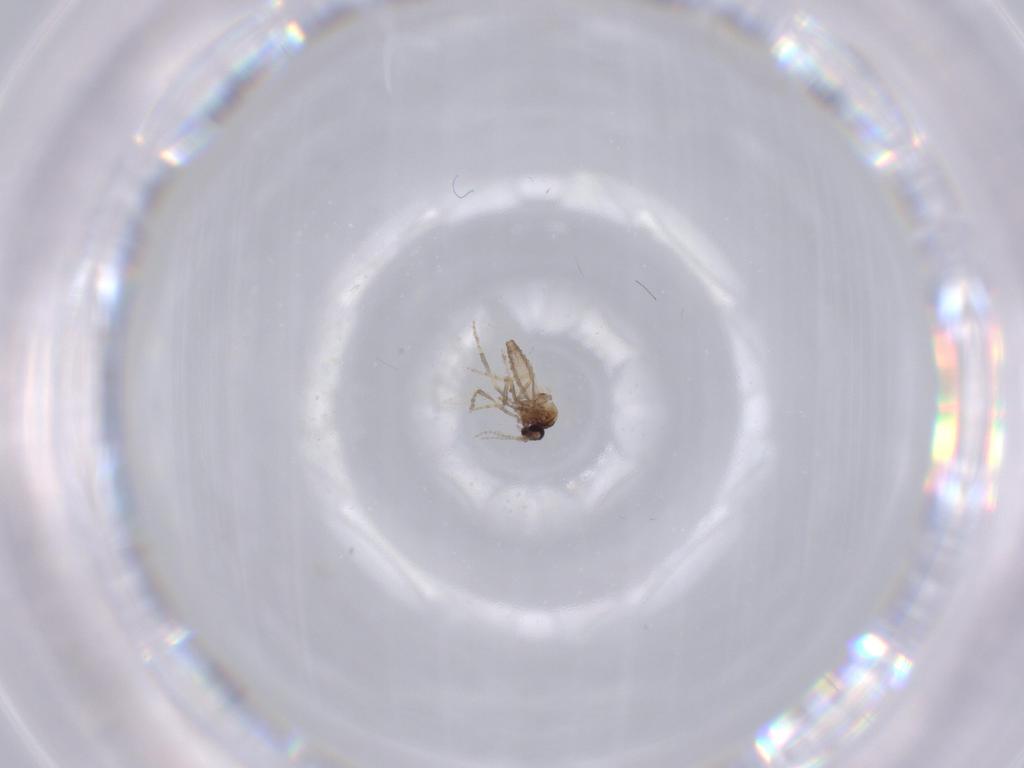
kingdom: Animalia
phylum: Arthropoda
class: Insecta
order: Diptera
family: Ceratopogonidae
